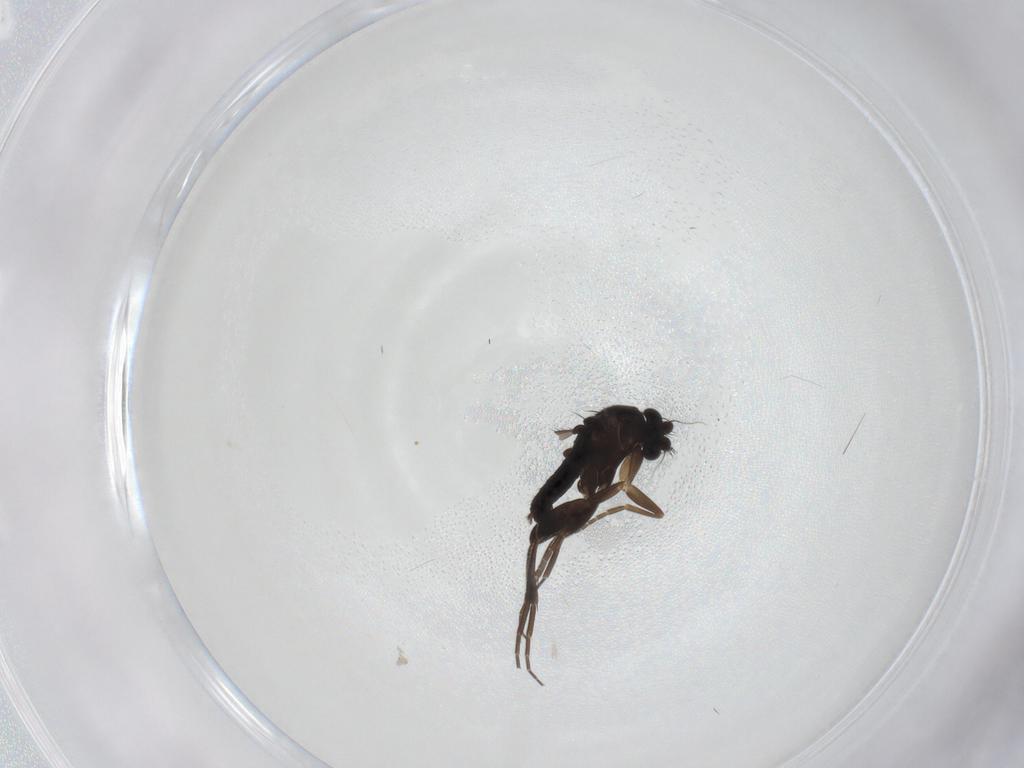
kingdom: Animalia
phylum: Arthropoda
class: Insecta
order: Diptera
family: Phoridae
